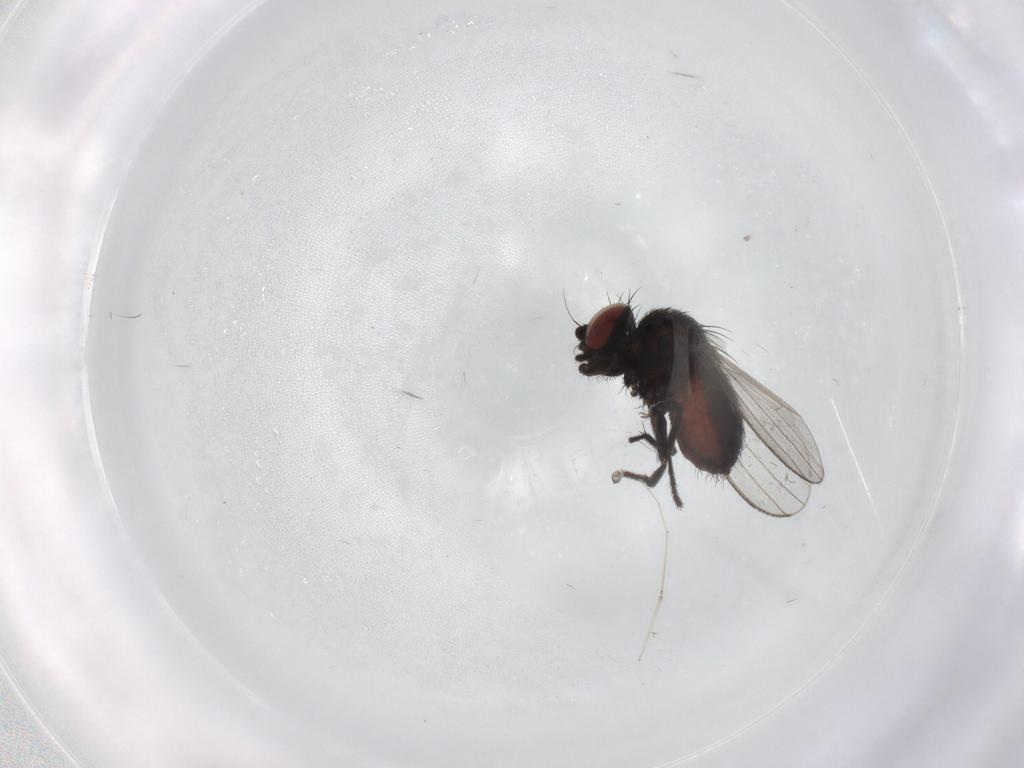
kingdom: Animalia
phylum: Arthropoda
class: Insecta
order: Diptera
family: Milichiidae
